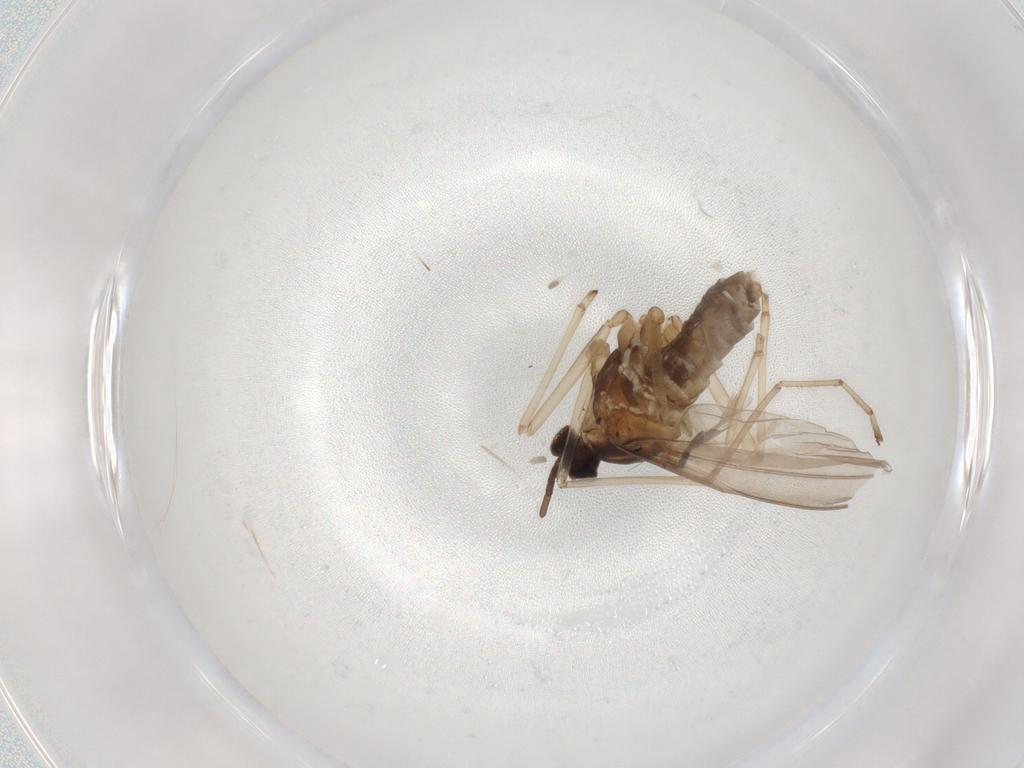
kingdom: Animalia
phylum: Arthropoda
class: Insecta
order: Diptera
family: Cecidomyiidae
